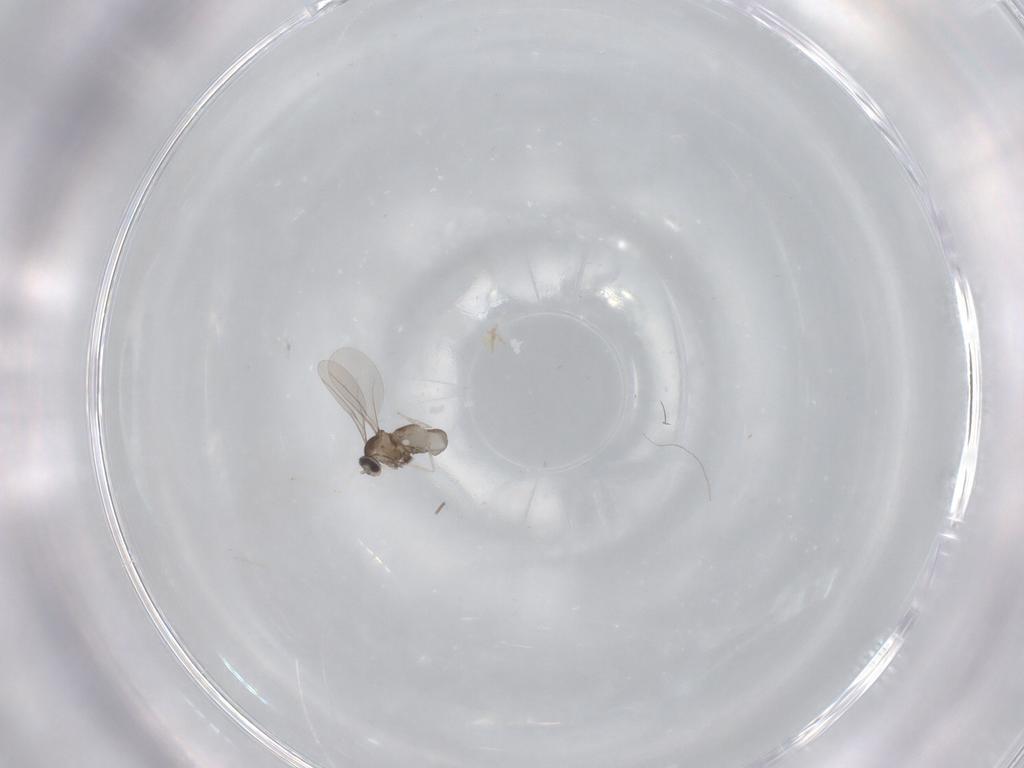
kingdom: Animalia
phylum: Arthropoda
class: Insecta
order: Diptera
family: Cecidomyiidae
